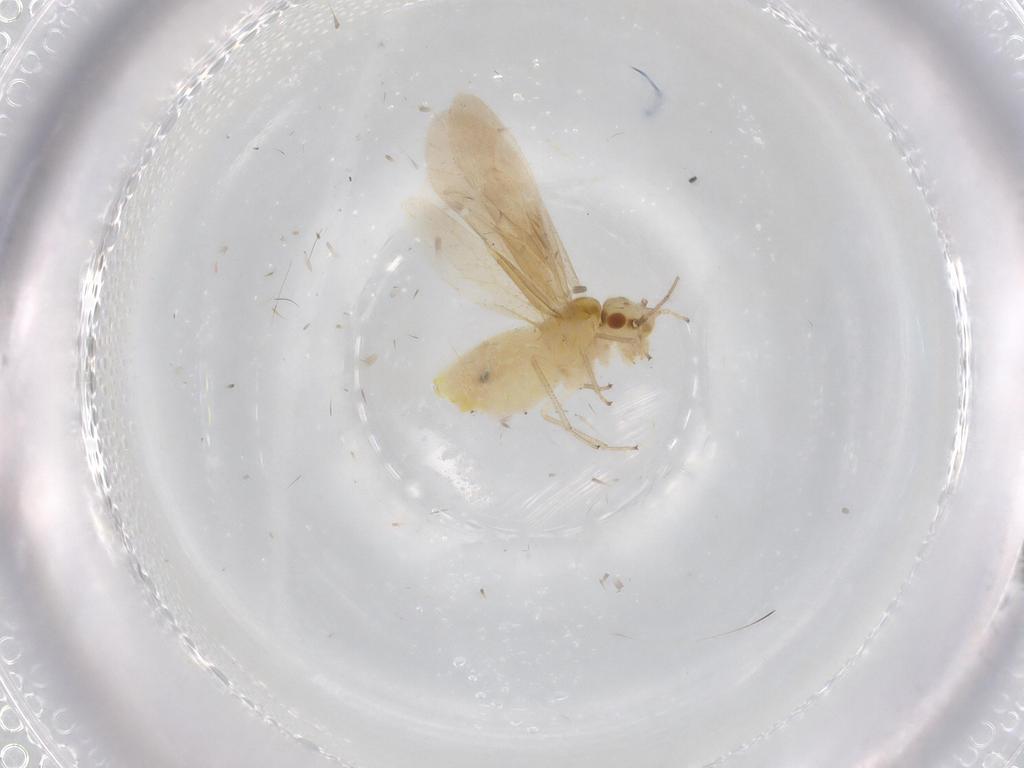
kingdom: Animalia
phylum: Arthropoda
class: Insecta
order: Psocodea
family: Caeciliusidae
